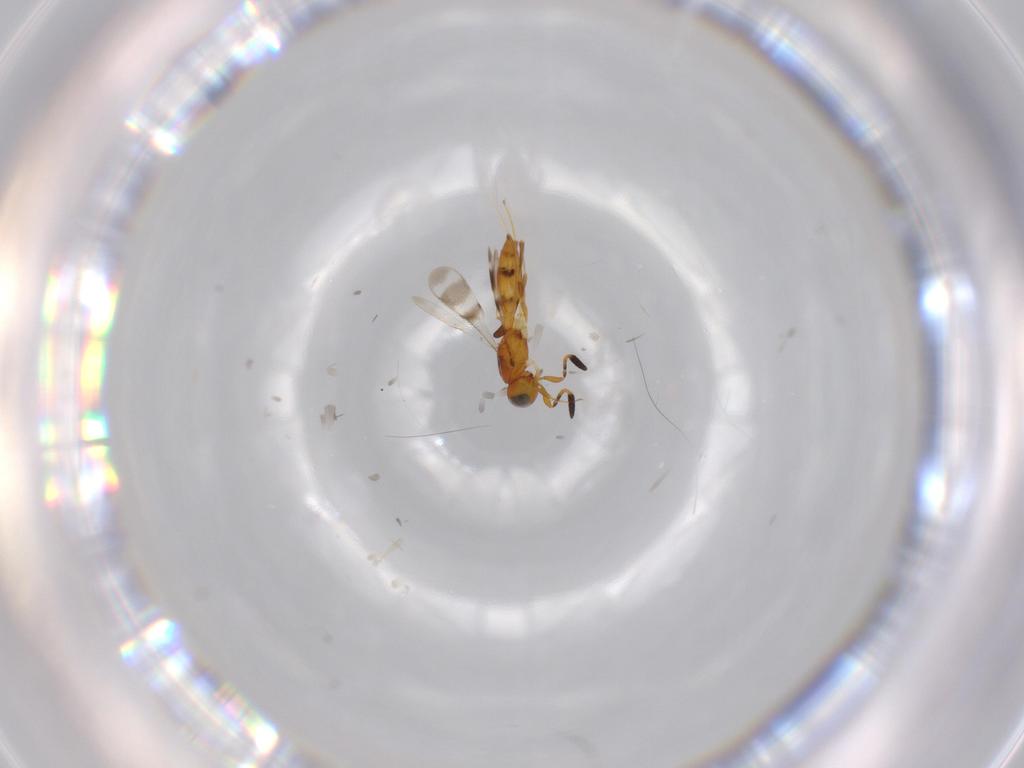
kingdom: Animalia
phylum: Arthropoda
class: Insecta
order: Hymenoptera
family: Scelionidae
